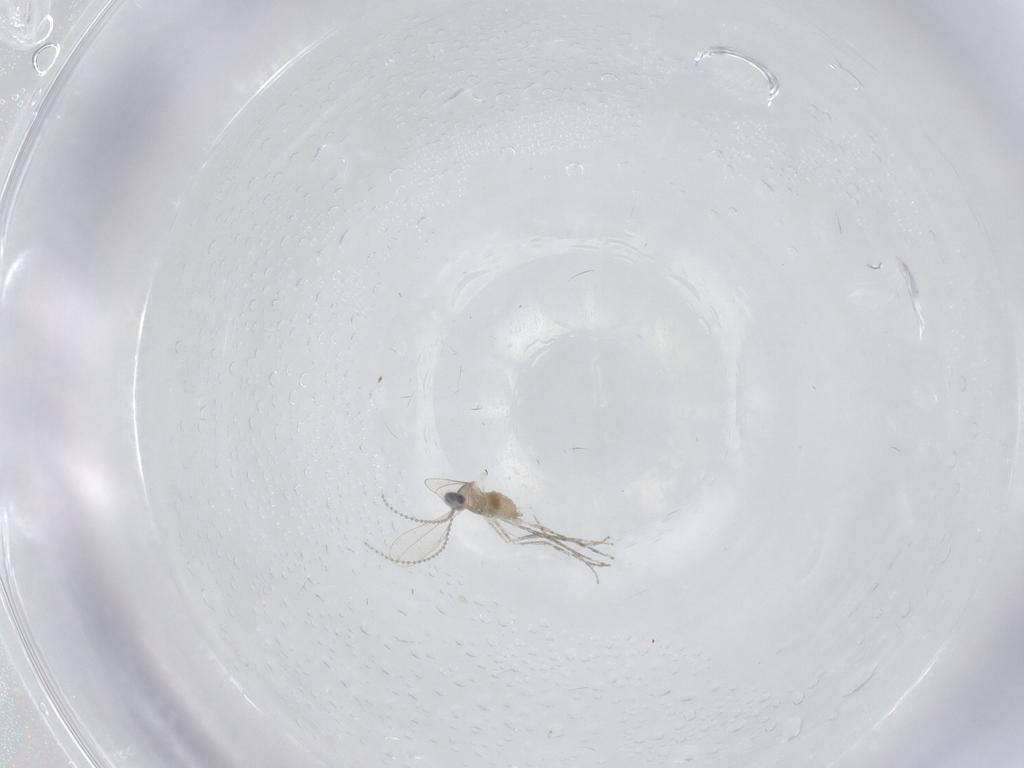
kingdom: Animalia
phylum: Arthropoda
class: Insecta
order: Diptera
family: Cecidomyiidae
